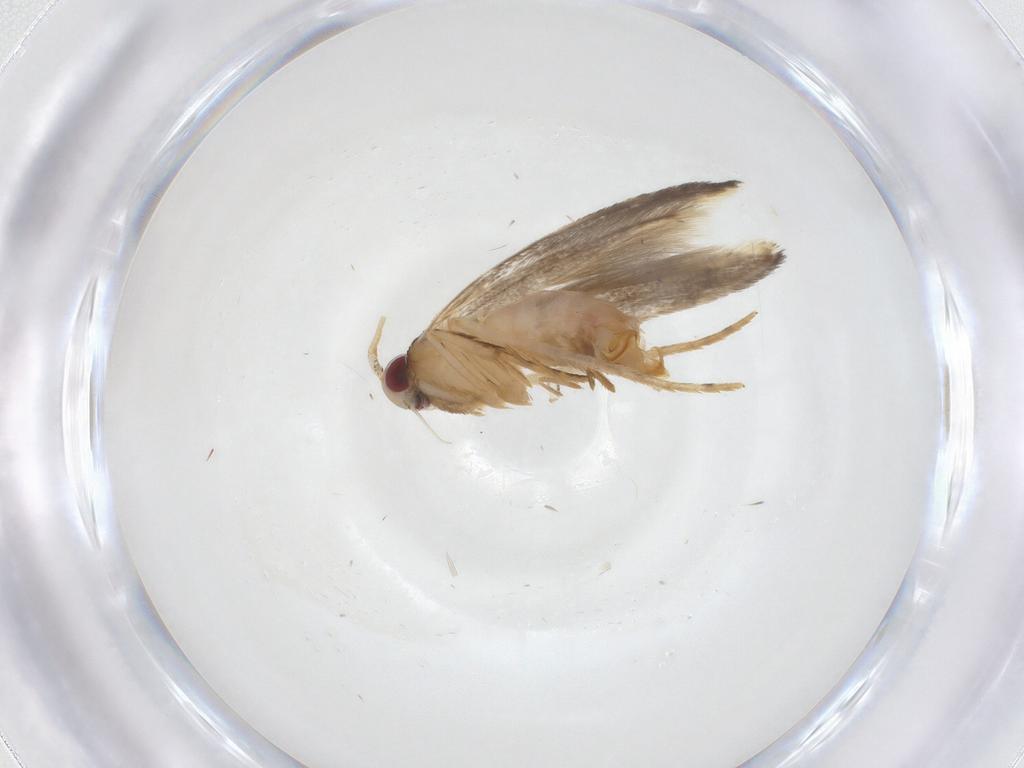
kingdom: Animalia
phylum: Arthropoda
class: Insecta
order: Lepidoptera
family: Cosmopterigidae
